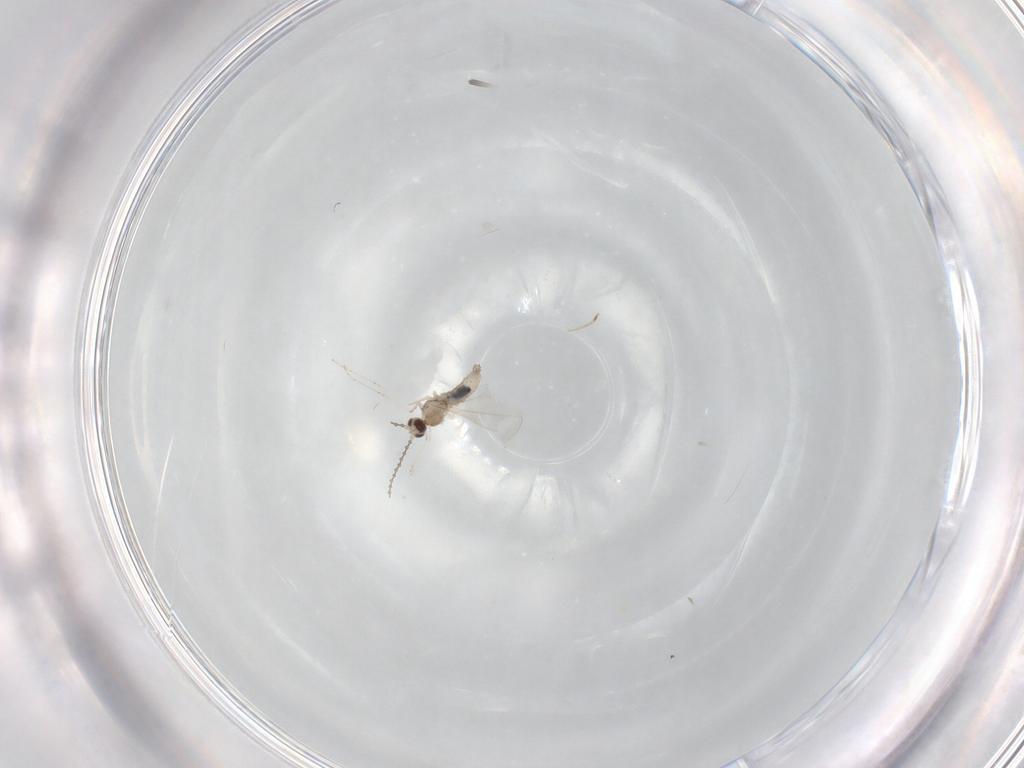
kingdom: Animalia
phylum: Arthropoda
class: Insecta
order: Diptera
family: Cecidomyiidae
